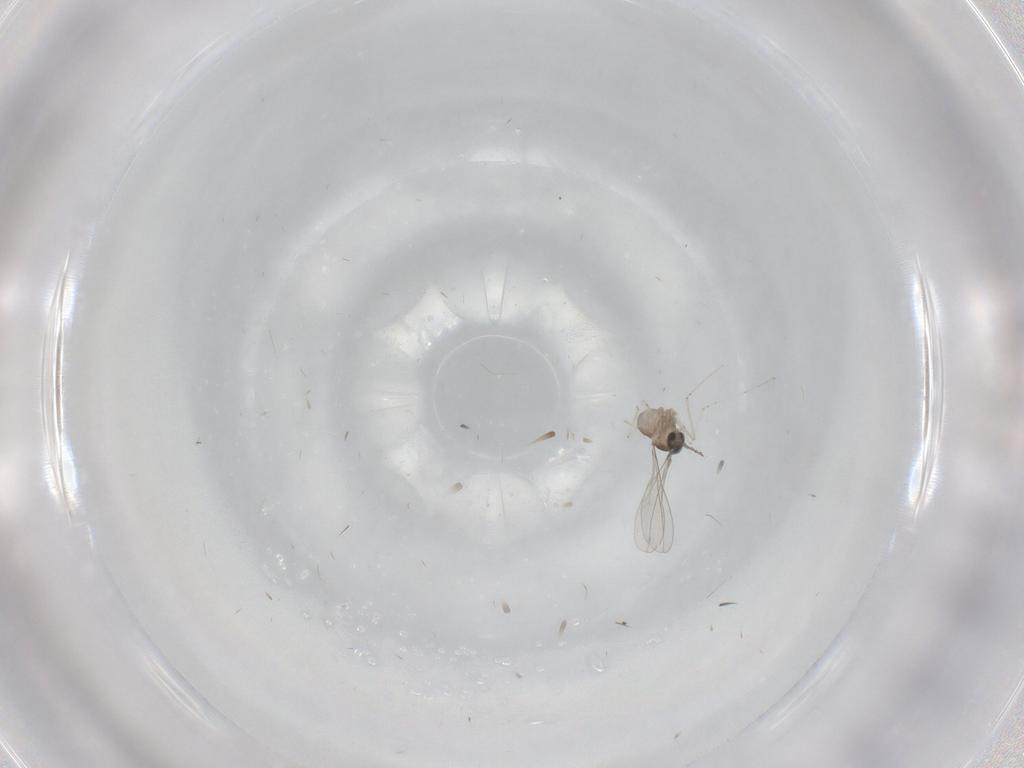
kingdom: Animalia
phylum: Arthropoda
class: Insecta
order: Diptera
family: Cecidomyiidae
